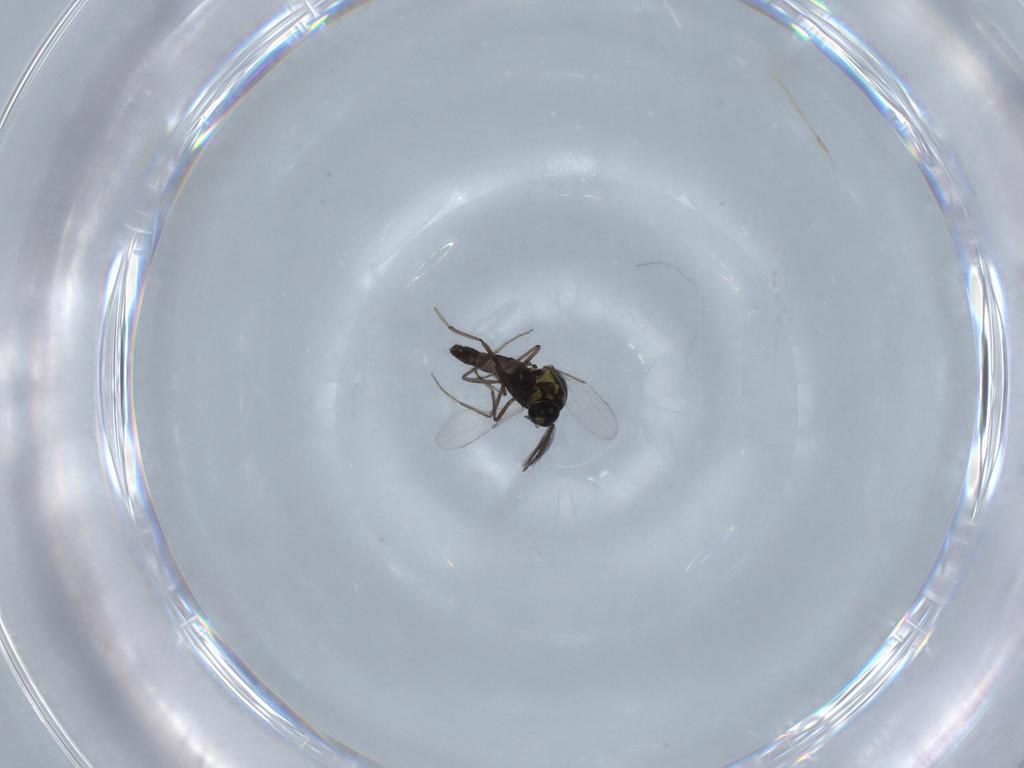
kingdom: Animalia
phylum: Arthropoda
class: Insecta
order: Diptera
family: Ceratopogonidae
